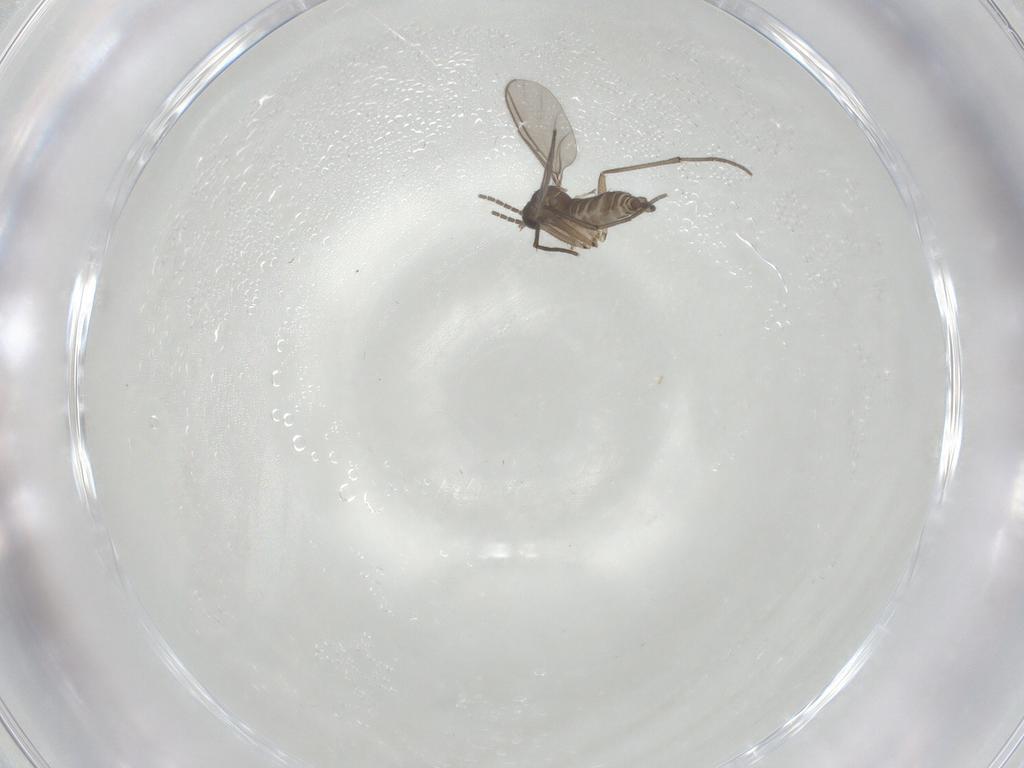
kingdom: Animalia
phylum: Arthropoda
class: Insecta
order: Diptera
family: Sciaridae
